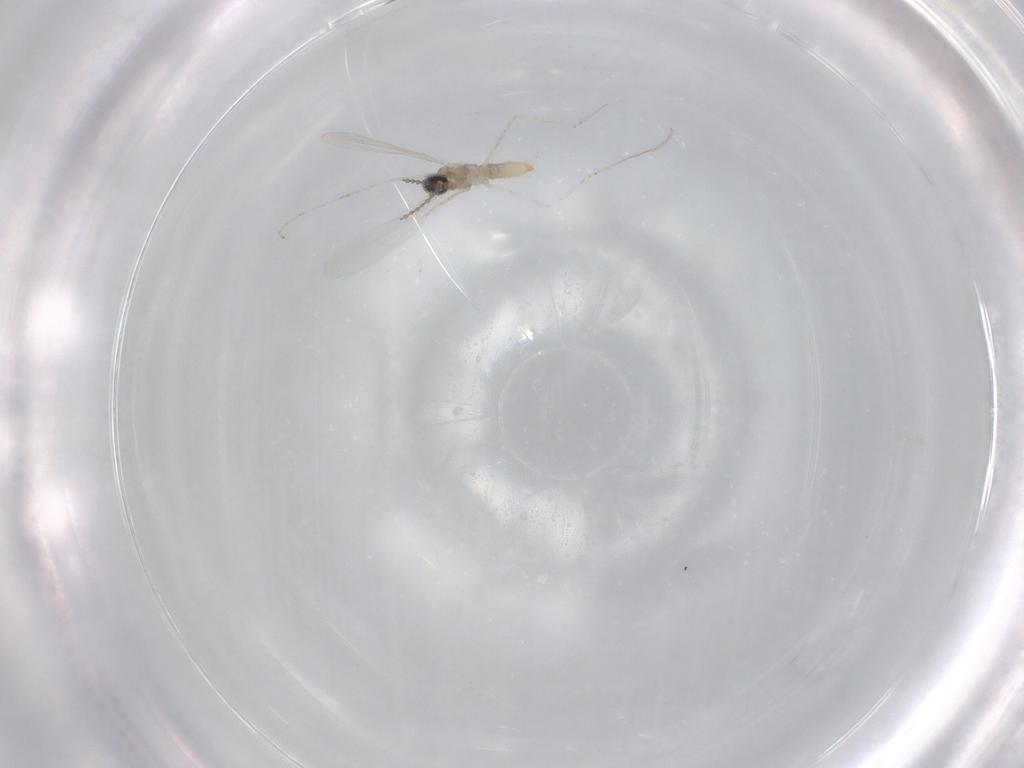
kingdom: Animalia
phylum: Arthropoda
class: Insecta
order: Diptera
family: Cecidomyiidae
